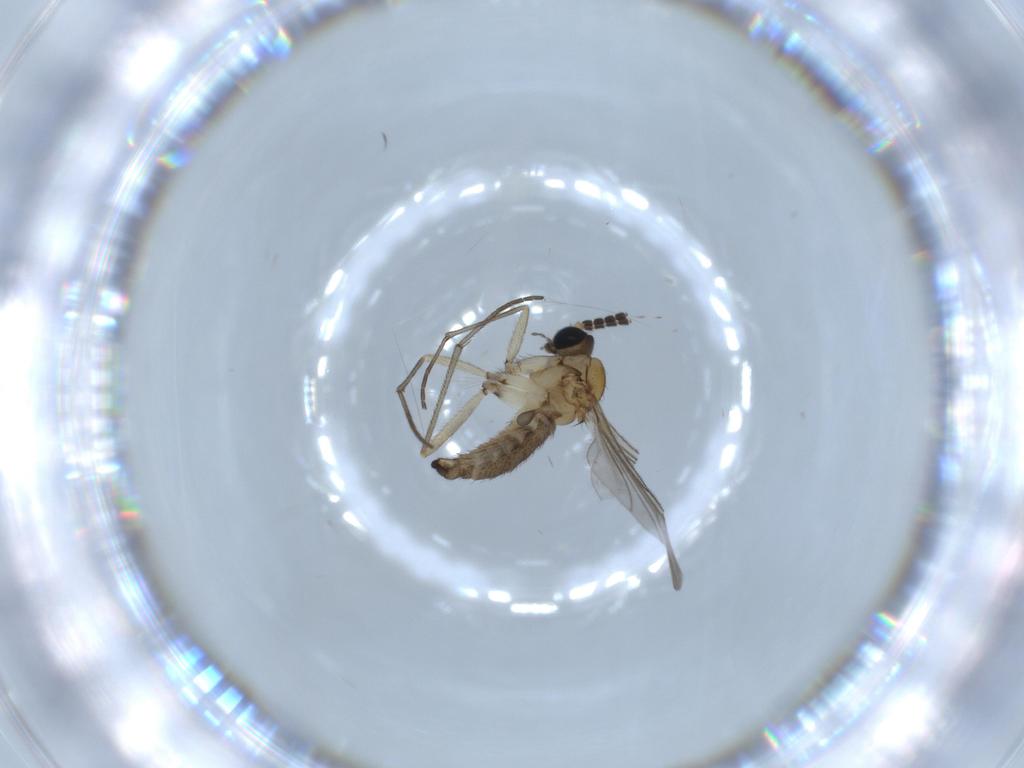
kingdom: Animalia
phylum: Arthropoda
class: Insecta
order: Diptera
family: Sciaridae
